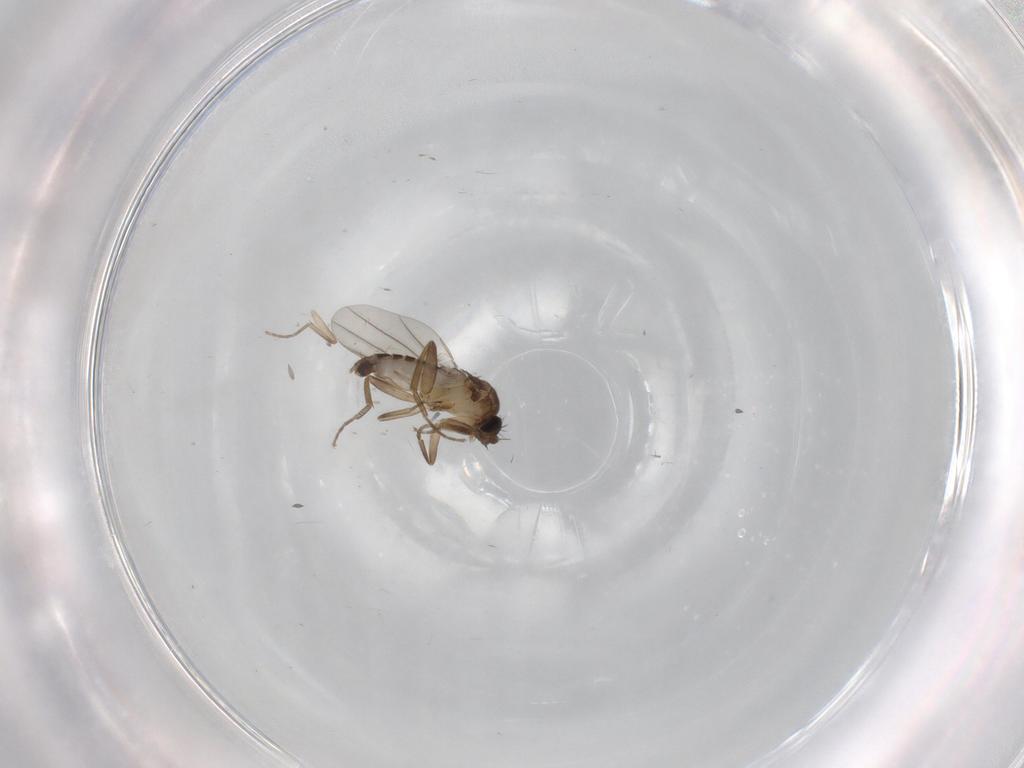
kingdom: Animalia
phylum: Arthropoda
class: Insecta
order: Diptera
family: Phoridae
